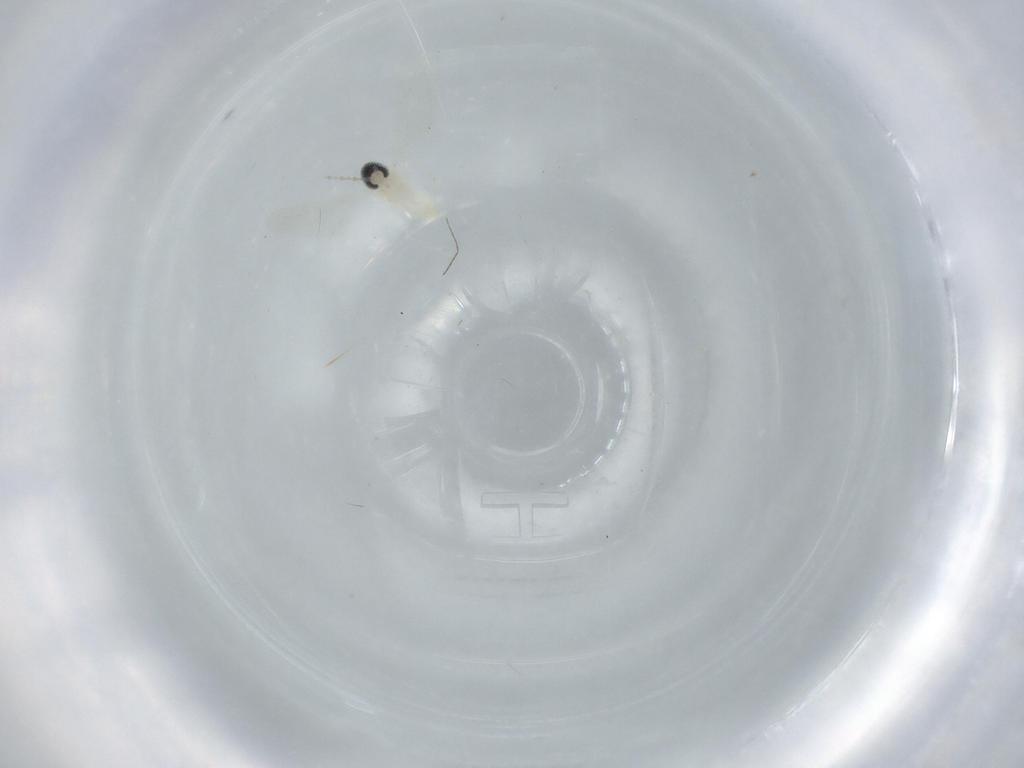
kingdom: Animalia
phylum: Arthropoda
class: Insecta
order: Diptera
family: Cecidomyiidae
